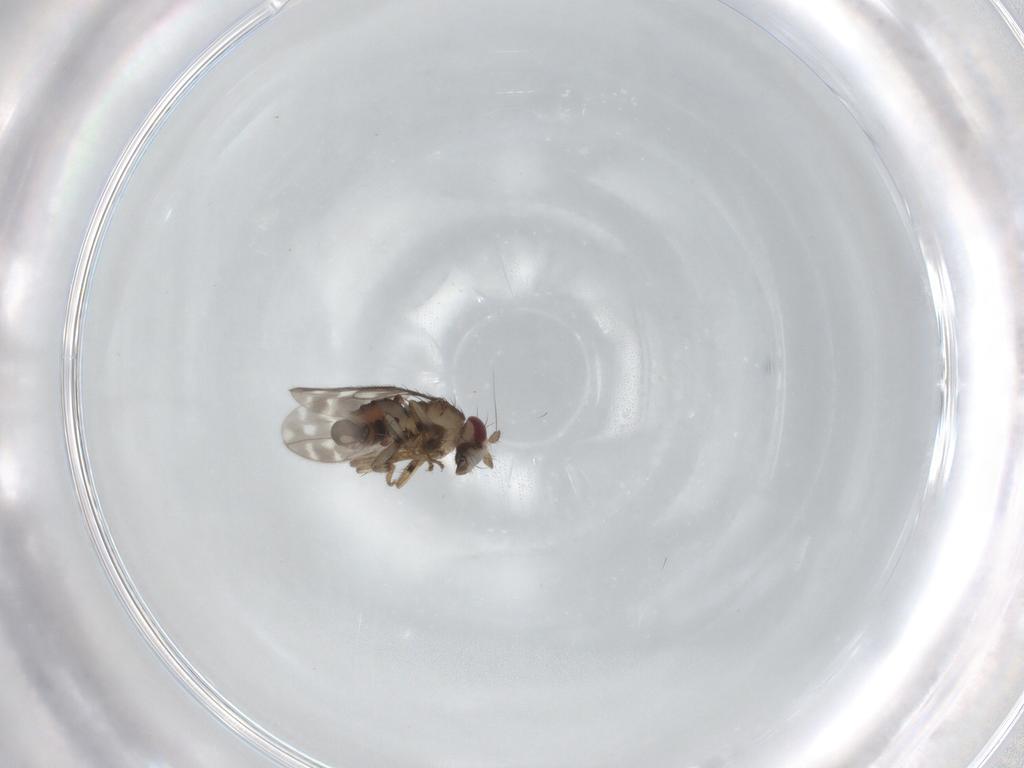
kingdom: Animalia
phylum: Arthropoda
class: Insecta
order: Diptera
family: Sphaeroceridae
